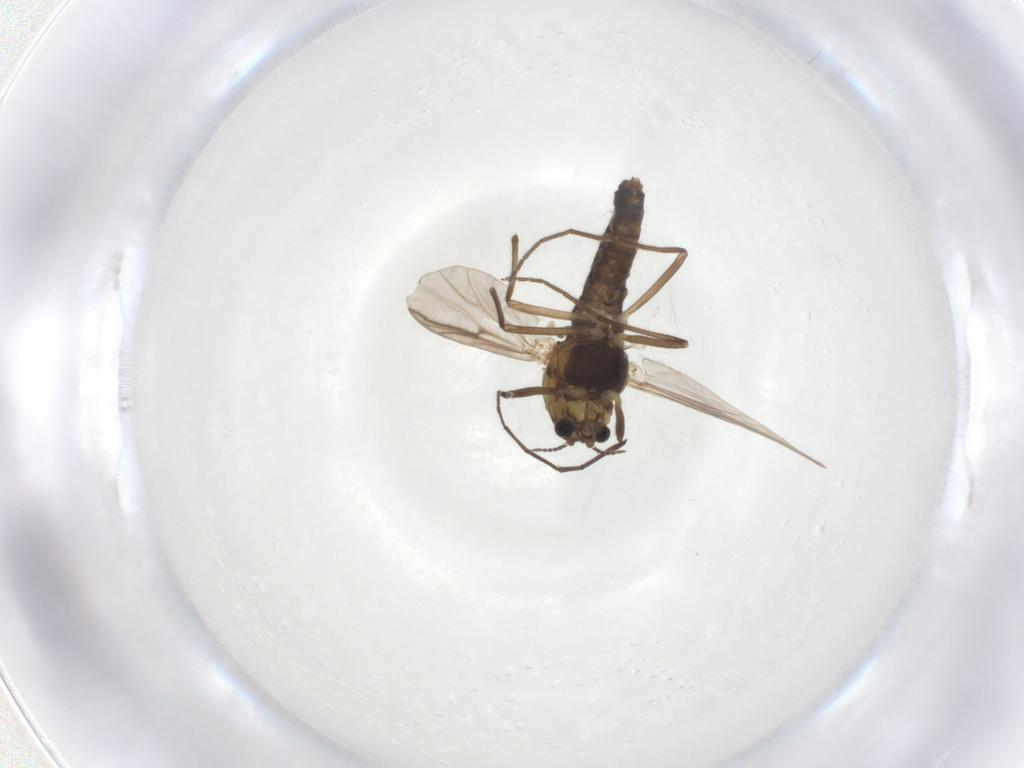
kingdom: Animalia
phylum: Arthropoda
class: Insecta
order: Diptera
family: Chironomidae
